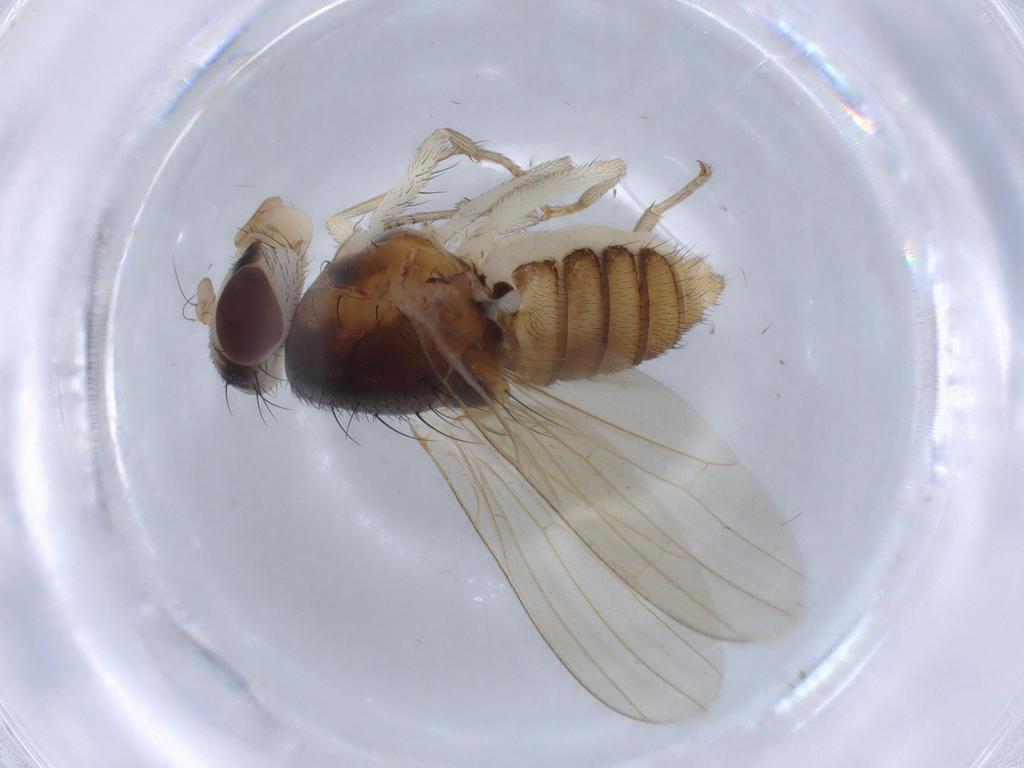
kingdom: Animalia
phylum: Arthropoda
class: Insecta
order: Diptera
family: Lauxaniidae
